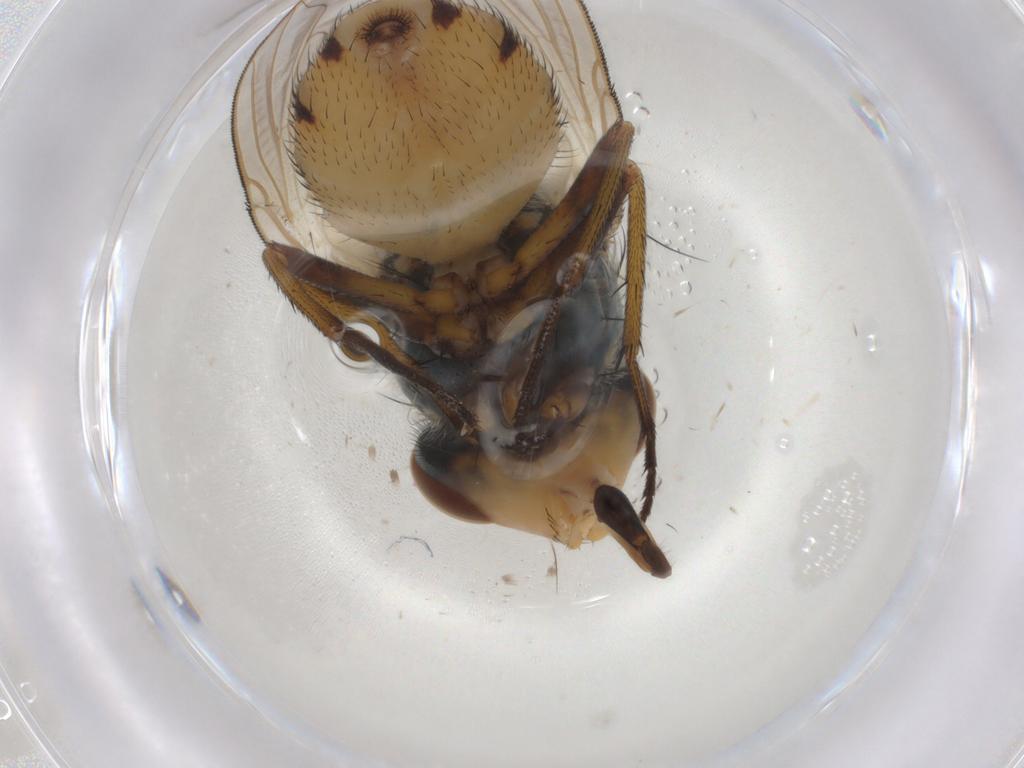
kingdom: Animalia
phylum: Arthropoda
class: Insecta
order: Diptera
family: Calliphoridae
